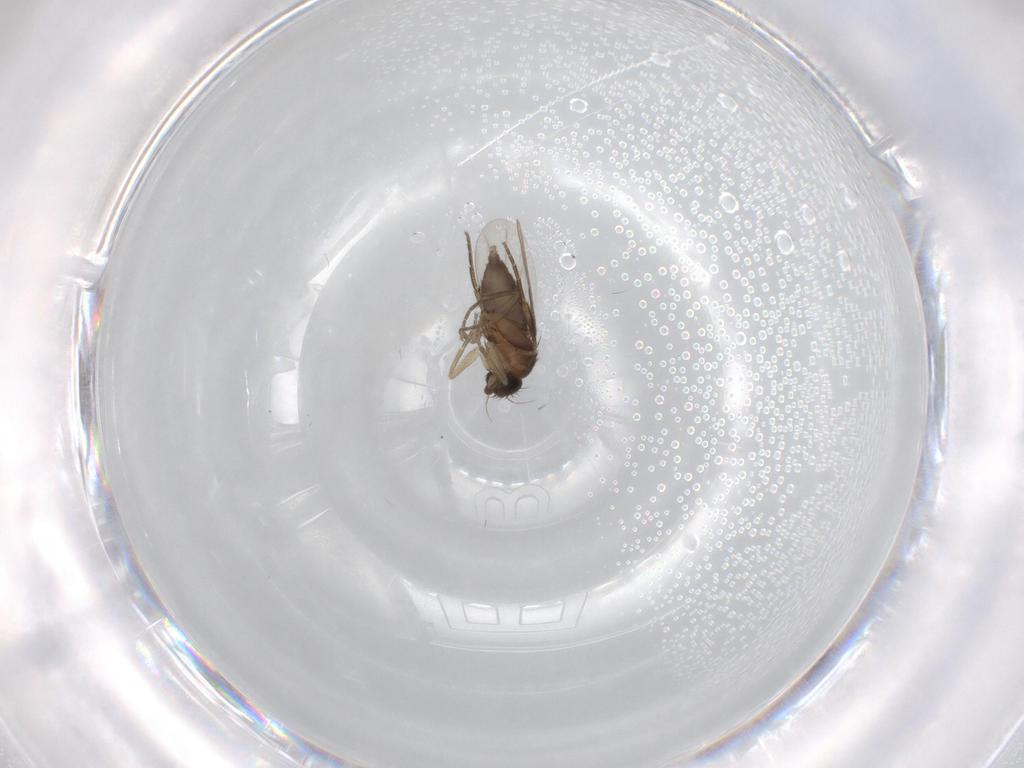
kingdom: Animalia
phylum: Arthropoda
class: Insecta
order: Diptera
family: Phoridae
